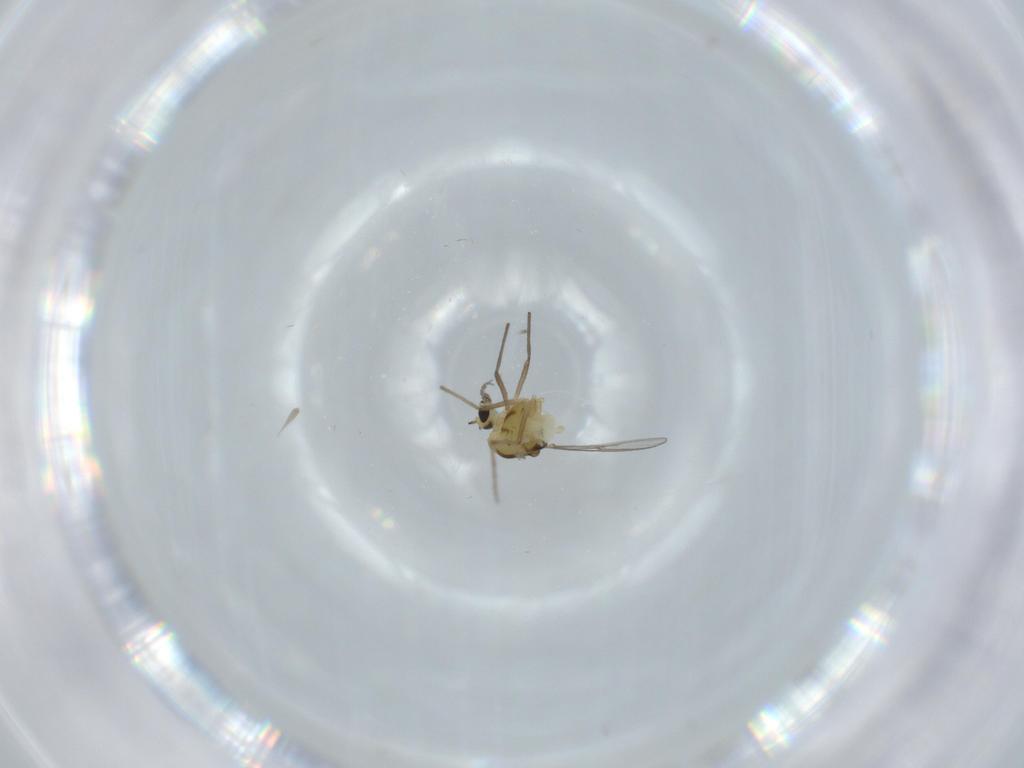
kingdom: Animalia
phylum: Arthropoda
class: Insecta
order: Diptera
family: Chironomidae
